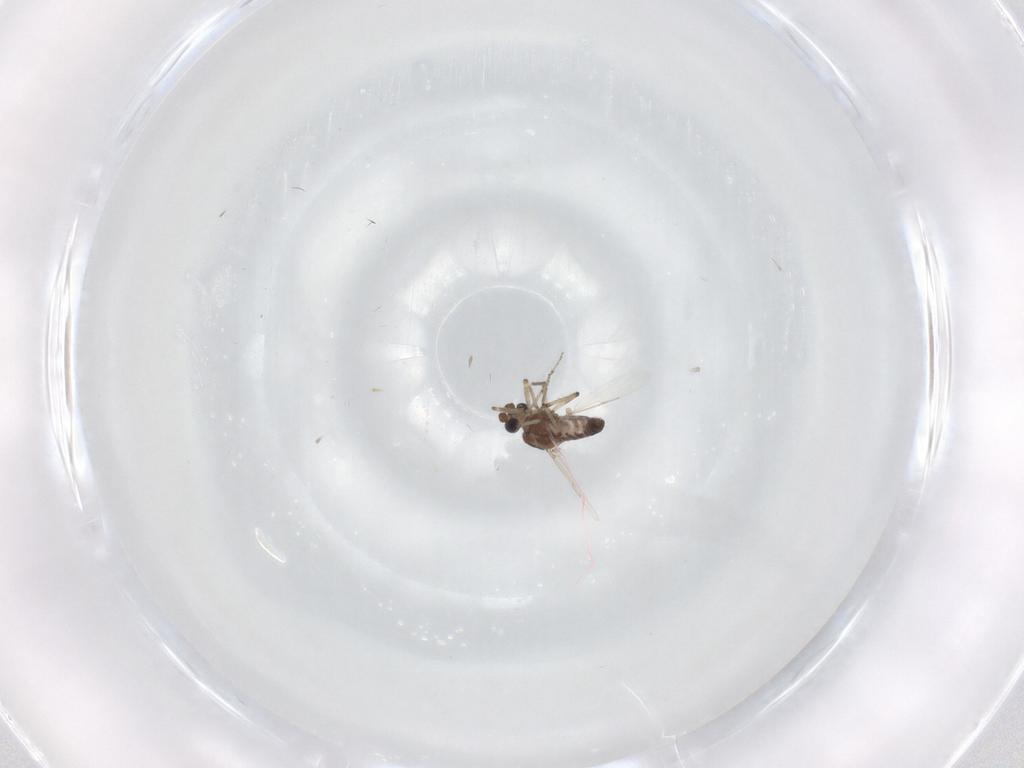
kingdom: Animalia
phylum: Arthropoda
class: Insecta
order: Diptera
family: Ceratopogonidae
